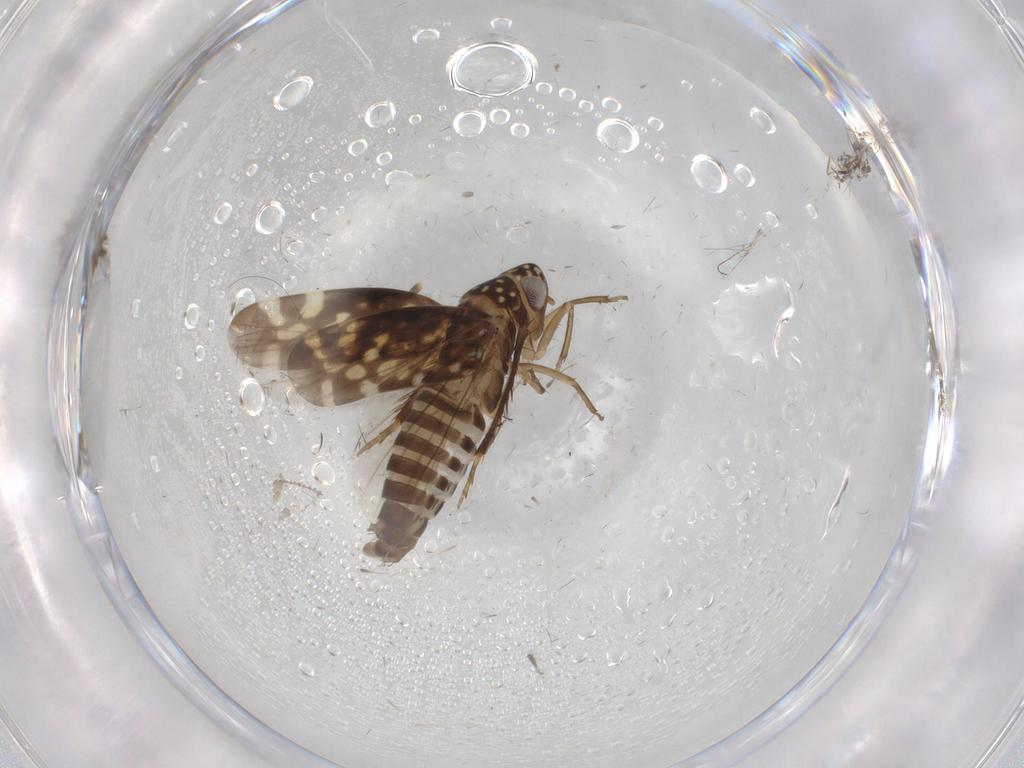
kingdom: Animalia
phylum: Arthropoda
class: Insecta
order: Hemiptera
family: Cicadellidae
